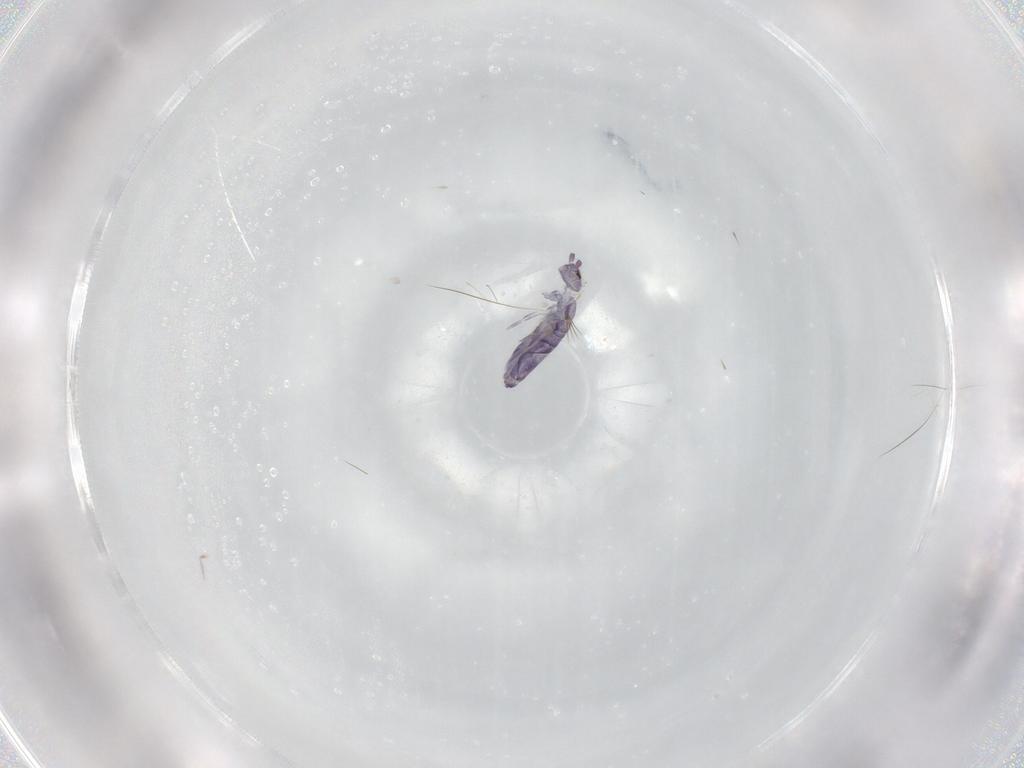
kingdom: Animalia
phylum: Arthropoda
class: Collembola
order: Entomobryomorpha
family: Entomobryidae
